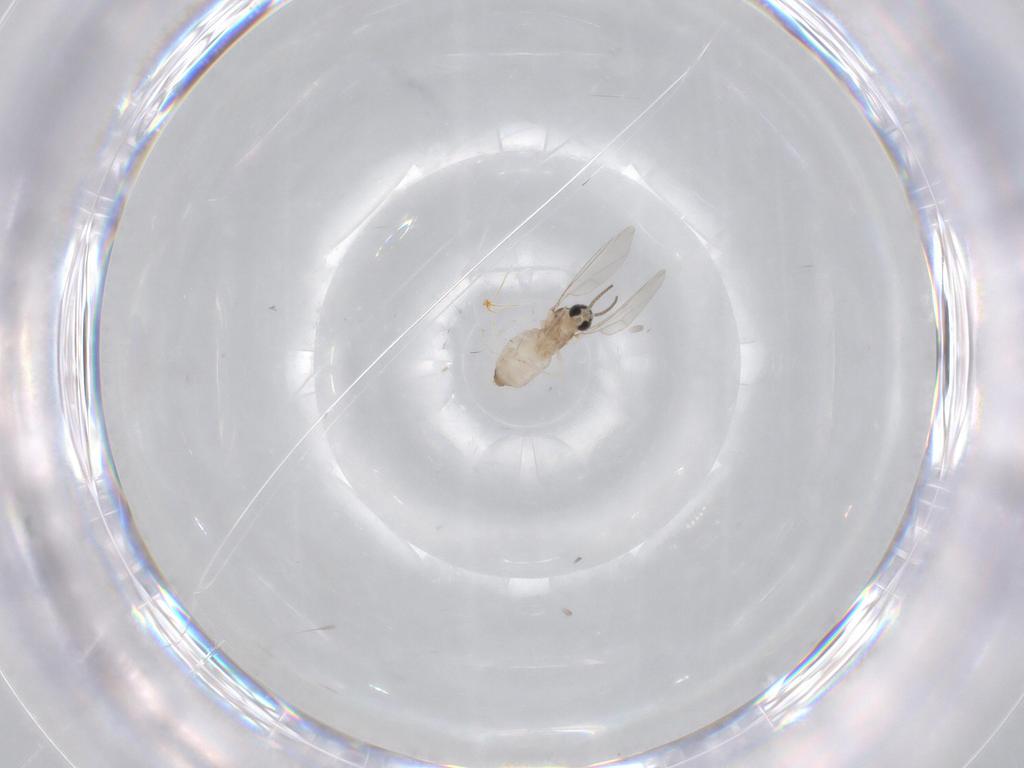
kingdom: Animalia
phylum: Arthropoda
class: Insecta
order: Diptera
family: Cecidomyiidae
